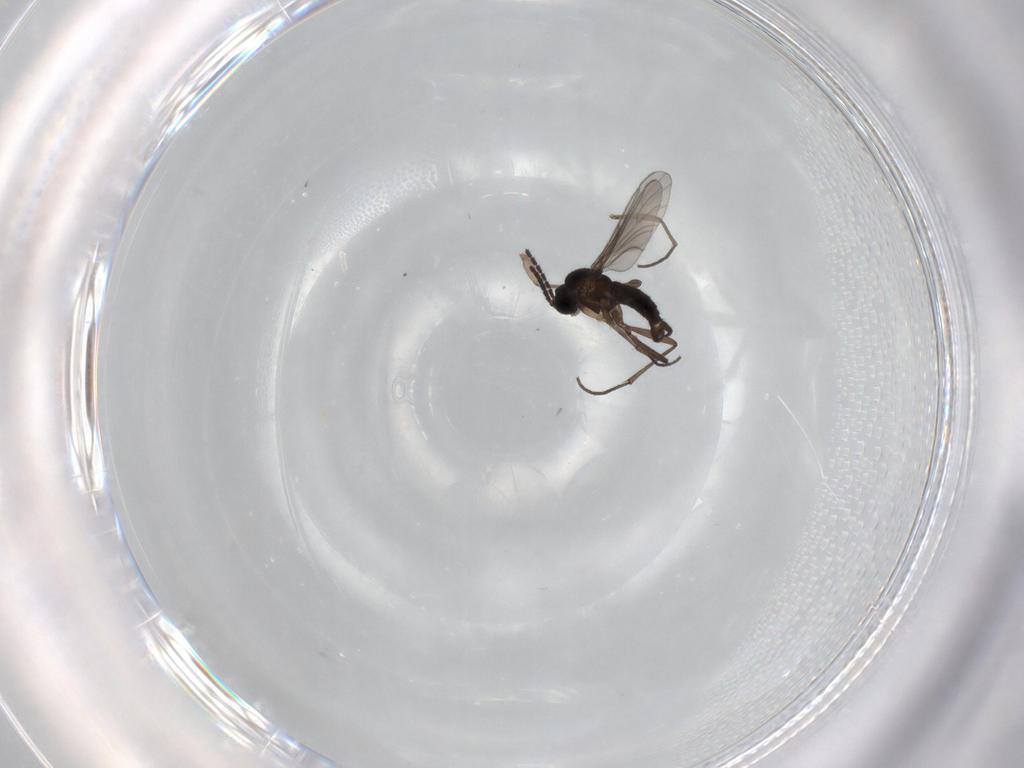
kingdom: Animalia
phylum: Arthropoda
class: Insecta
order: Diptera
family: Sciaridae
